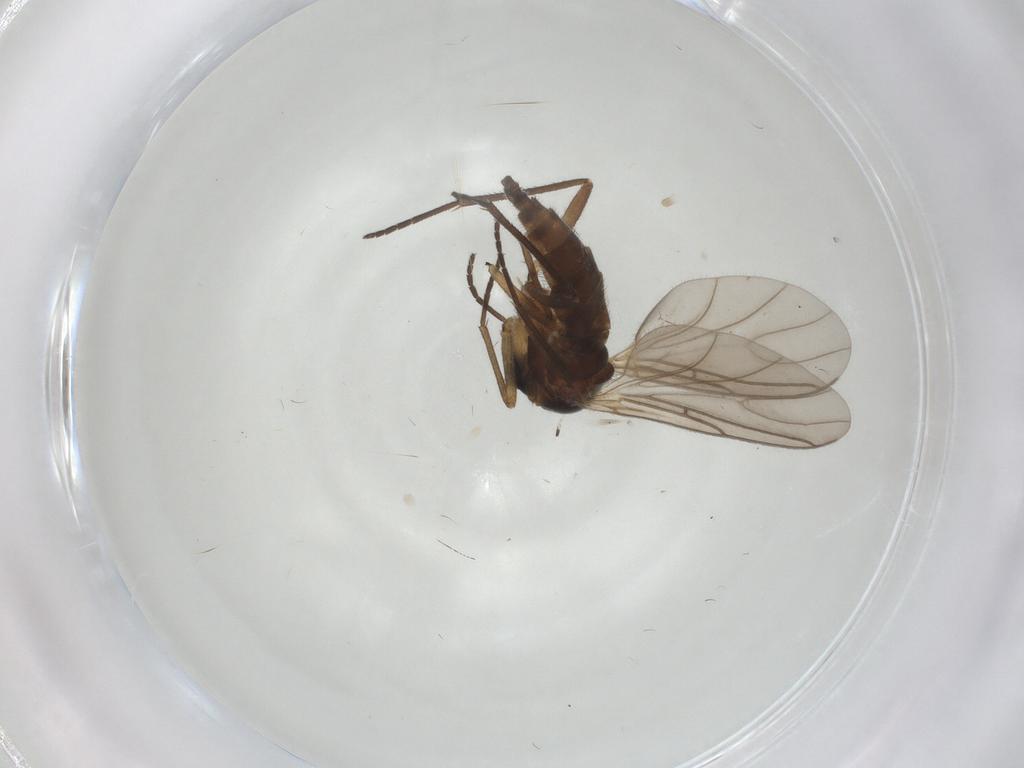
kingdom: Animalia
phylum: Arthropoda
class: Insecta
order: Diptera
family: Sciaridae
